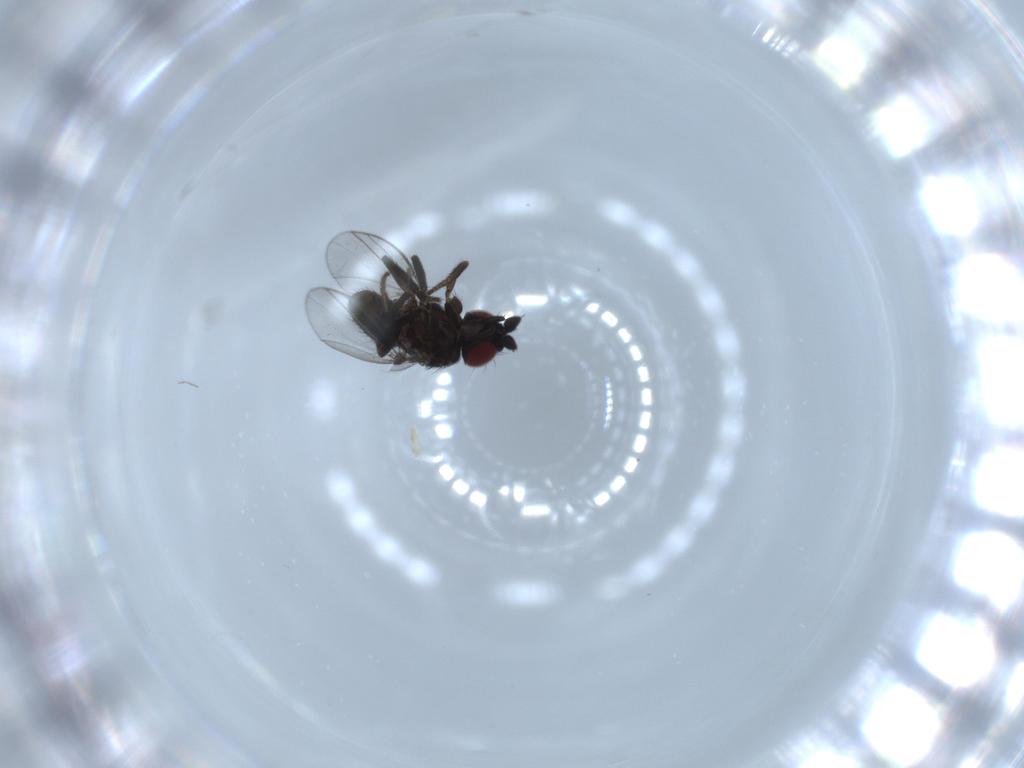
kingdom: Animalia
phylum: Arthropoda
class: Insecta
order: Diptera
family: Milichiidae
